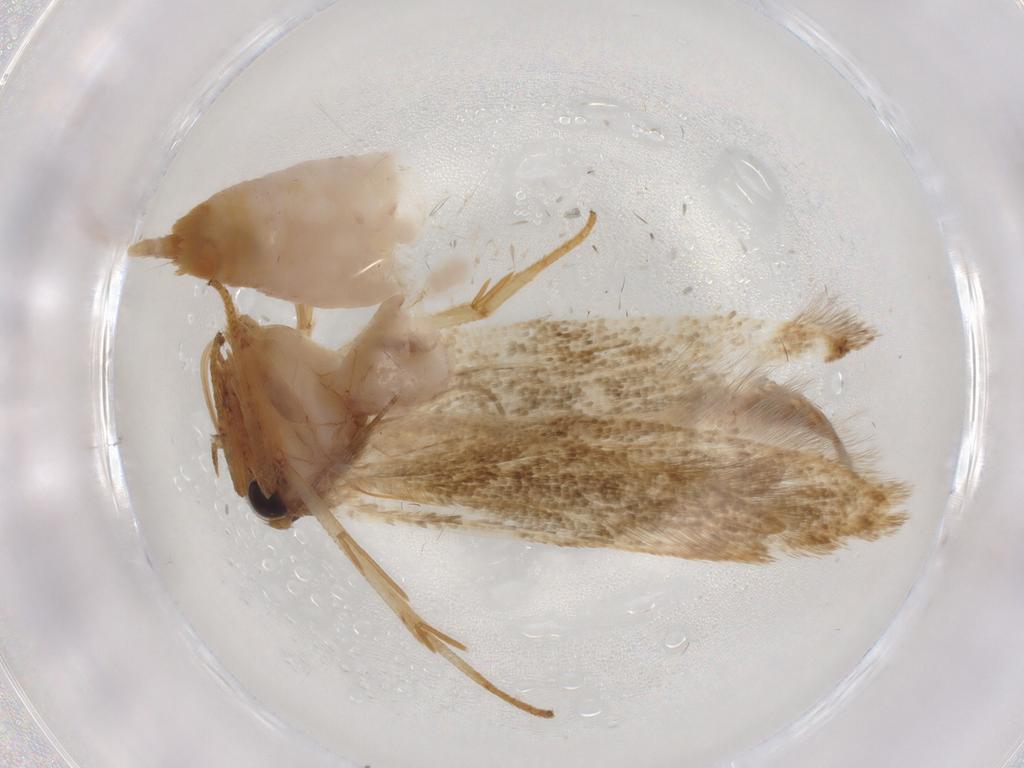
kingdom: Animalia
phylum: Arthropoda
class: Insecta
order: Lepidoptera
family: Blastobasidae
